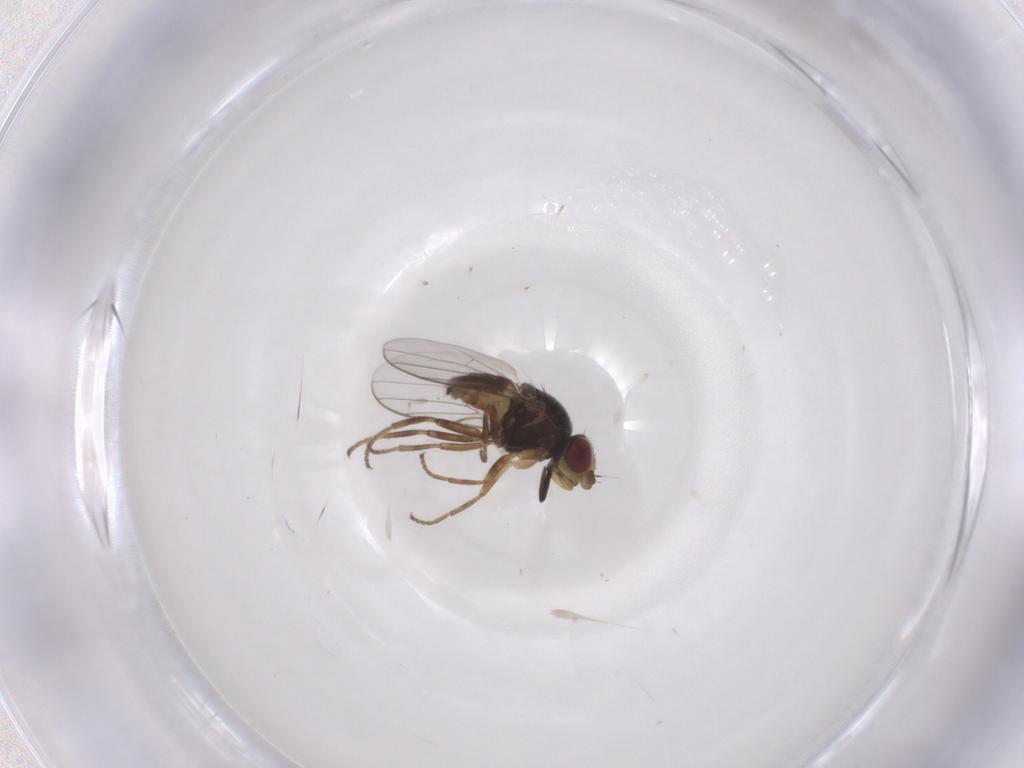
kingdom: Animalia
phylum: Arthropoda
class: Insecta
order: Diptera
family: Chloropidae
